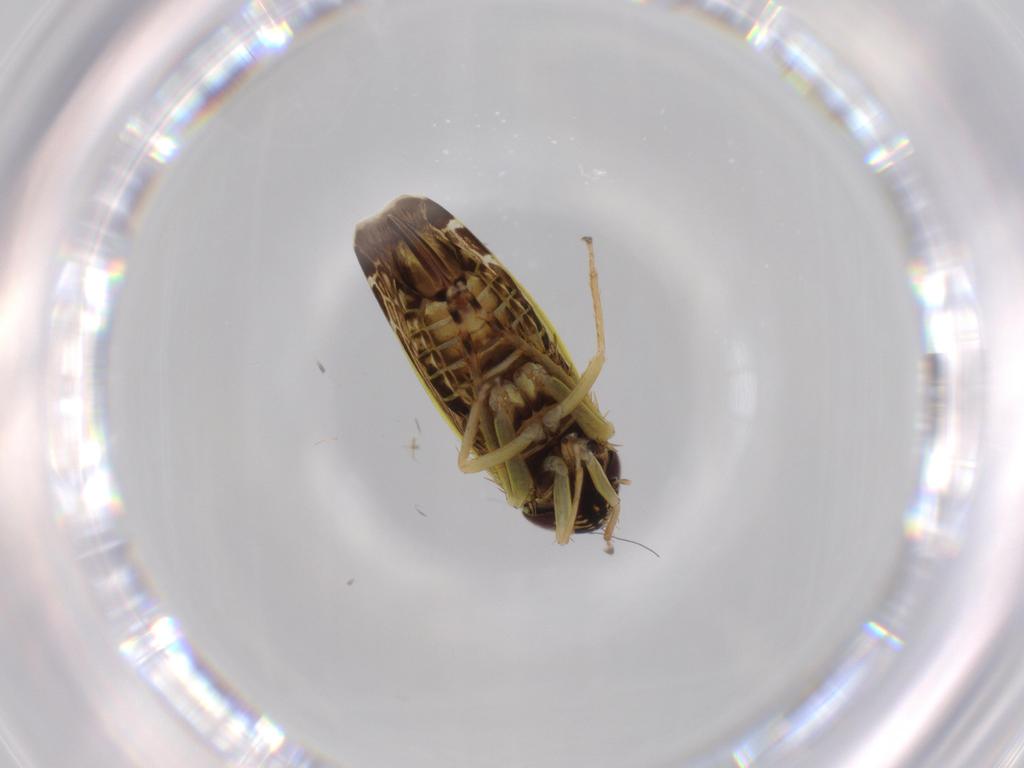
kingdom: Animalia
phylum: Arthropoda
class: Insecta
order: Hemiptera
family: Cicadellidae
